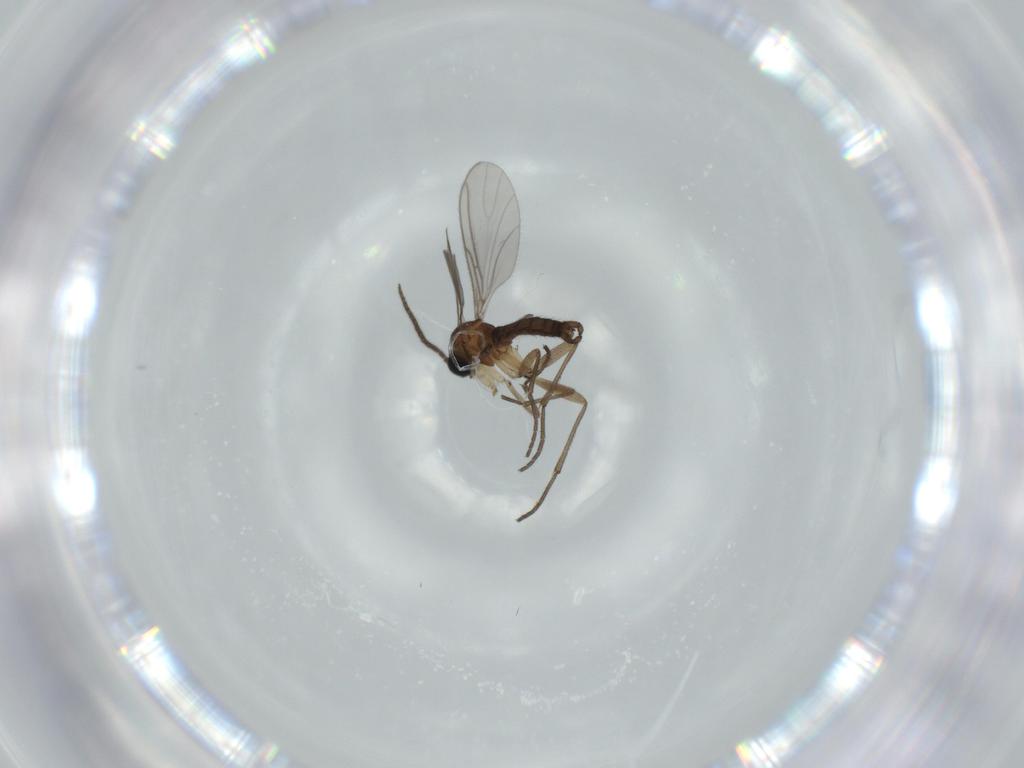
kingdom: Animalia
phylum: Arthropoda
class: Insecta
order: Diptera
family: Sciaridae
